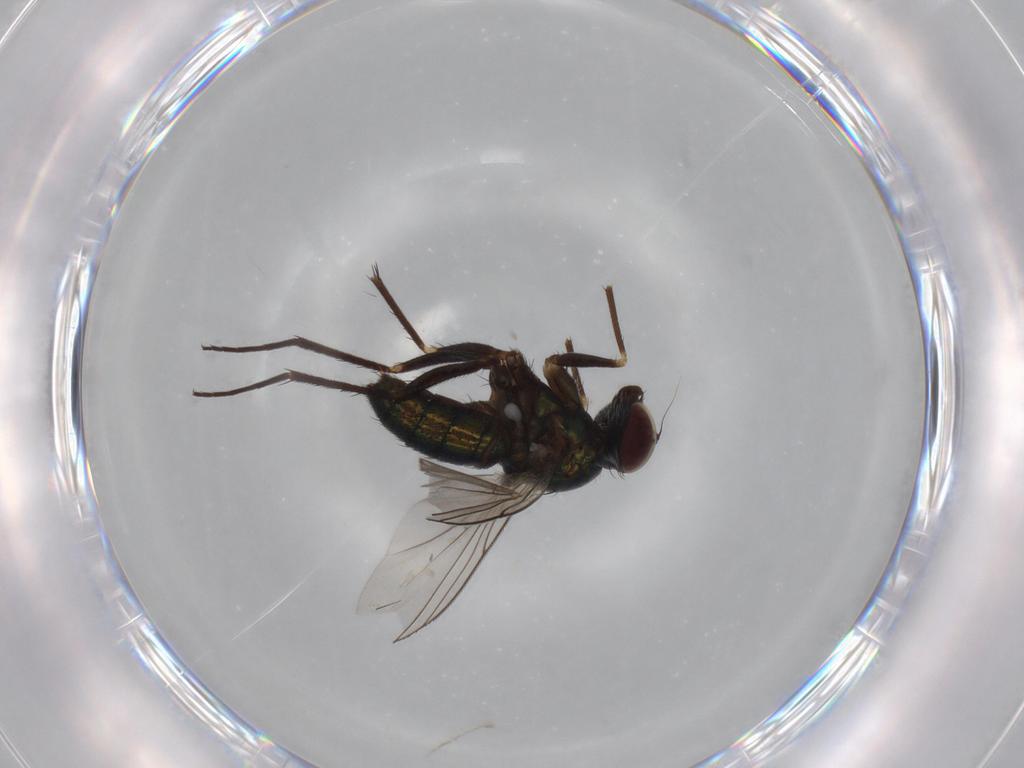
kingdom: Animalia
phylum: Arthropoda
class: Insecta
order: Diptera
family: Dolichopodidae
